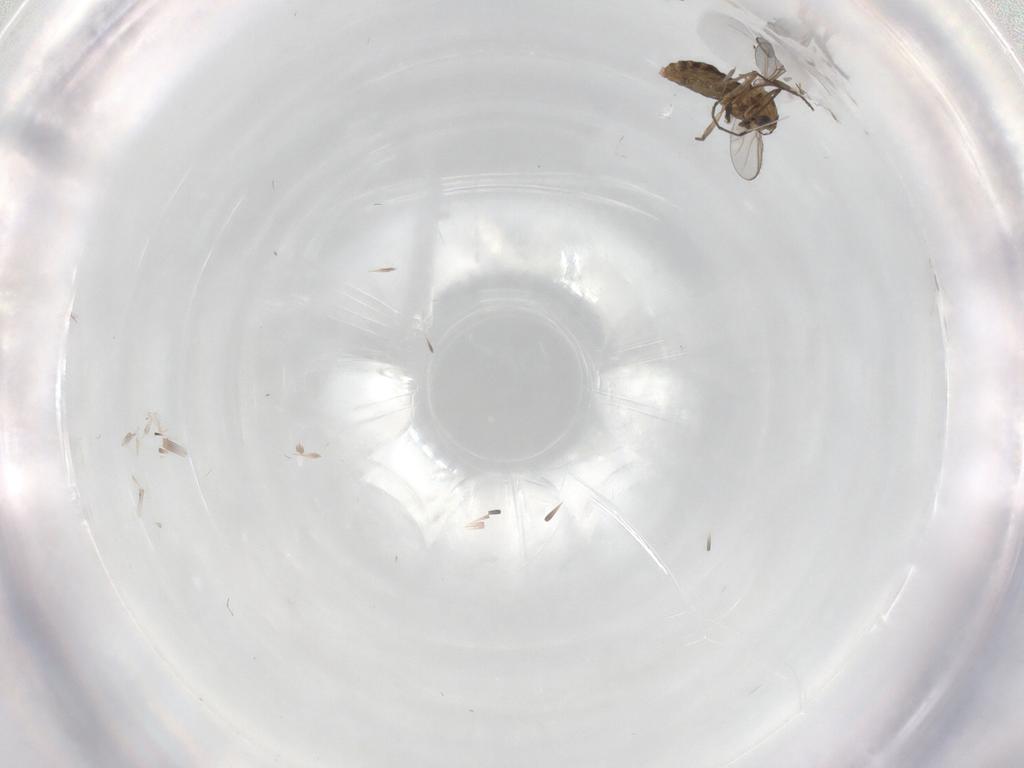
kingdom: Animalia
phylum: Arthropoda
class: Insecta
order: Diptera
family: Chironomidae
